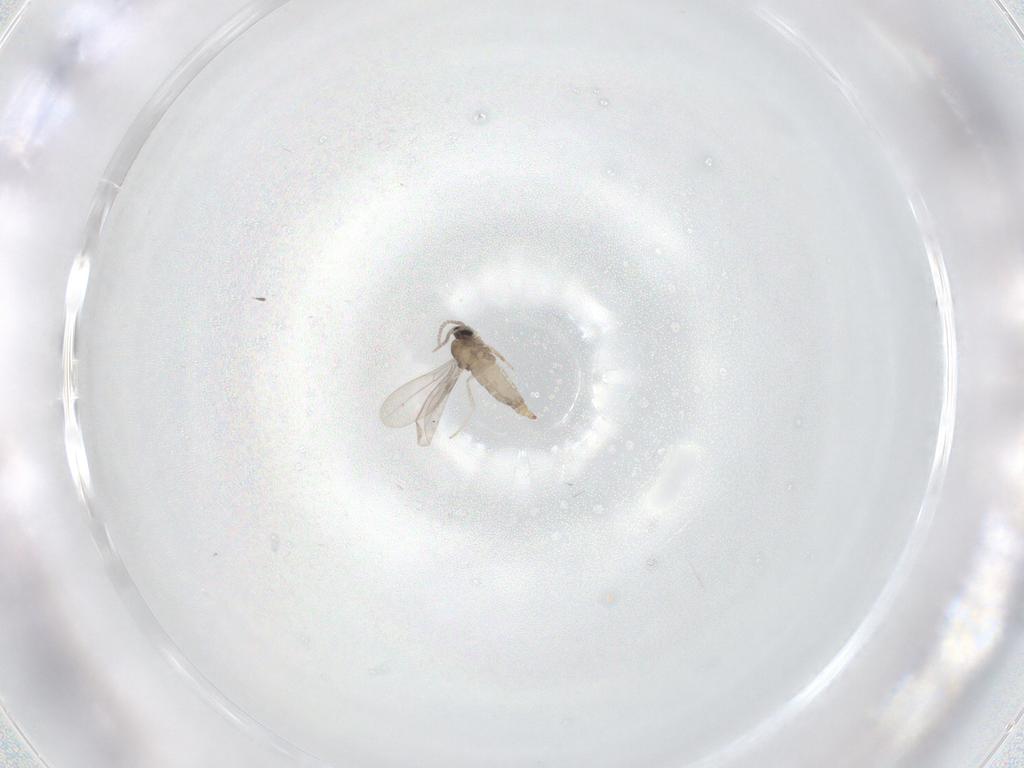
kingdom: Animalia
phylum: Arthropoda
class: Insecta
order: Diptera
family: Cecidomyiidae
